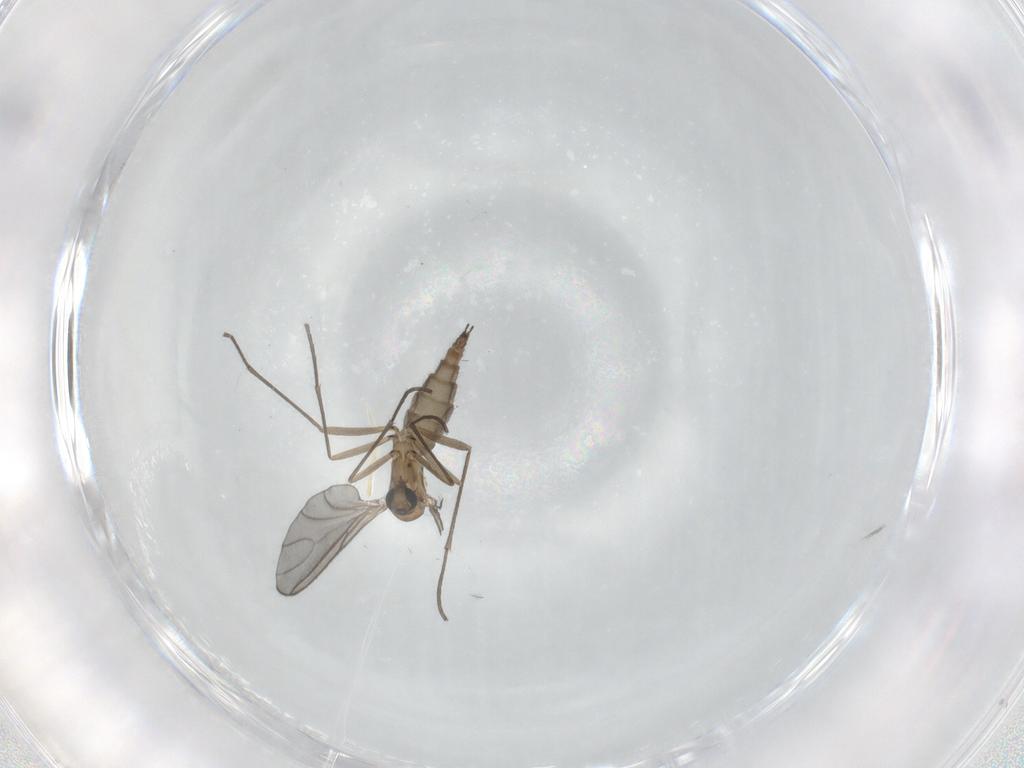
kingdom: Animalia
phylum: Arthropoda
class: Insecta
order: Diptera
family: Sciaridae
